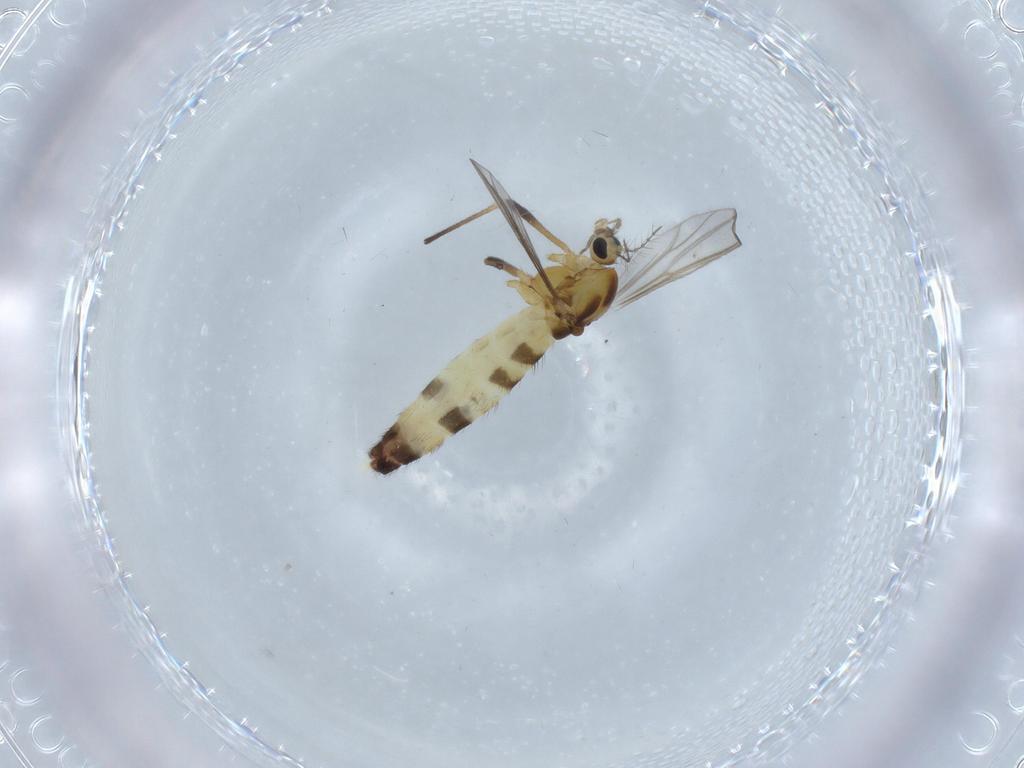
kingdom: Animalia
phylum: Arthropoda
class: Insecta
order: Diptera
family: Chironomidae
